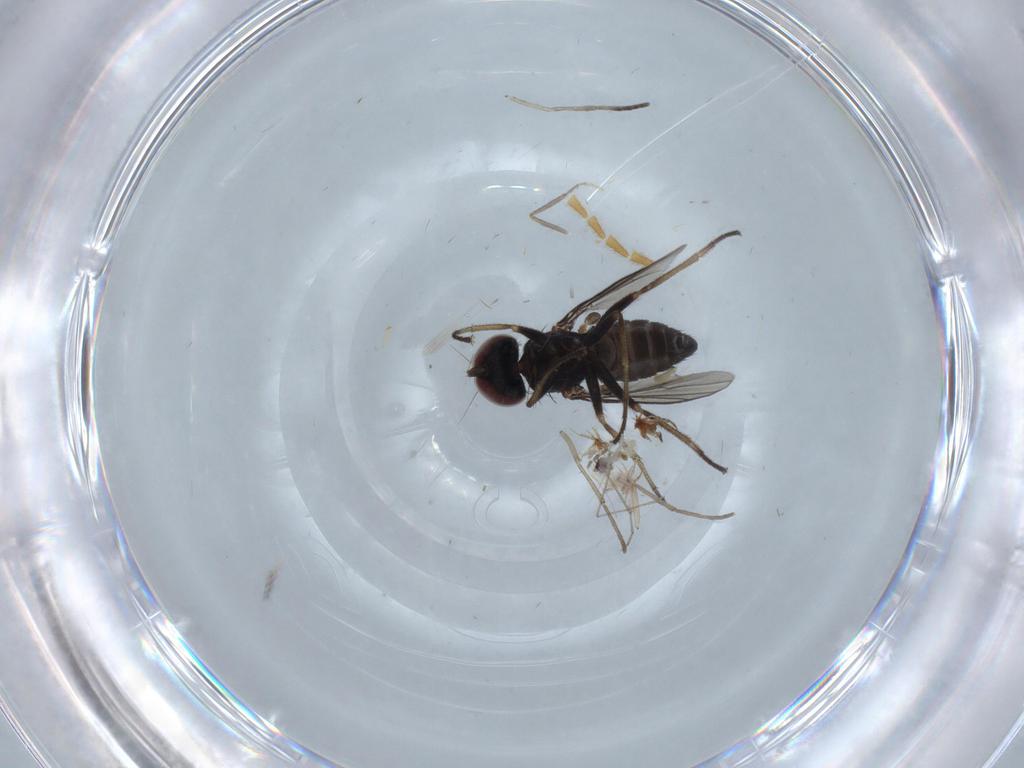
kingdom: Animalia
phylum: Arthropoda
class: Insecta
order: Diptera
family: Dolichopodidae
